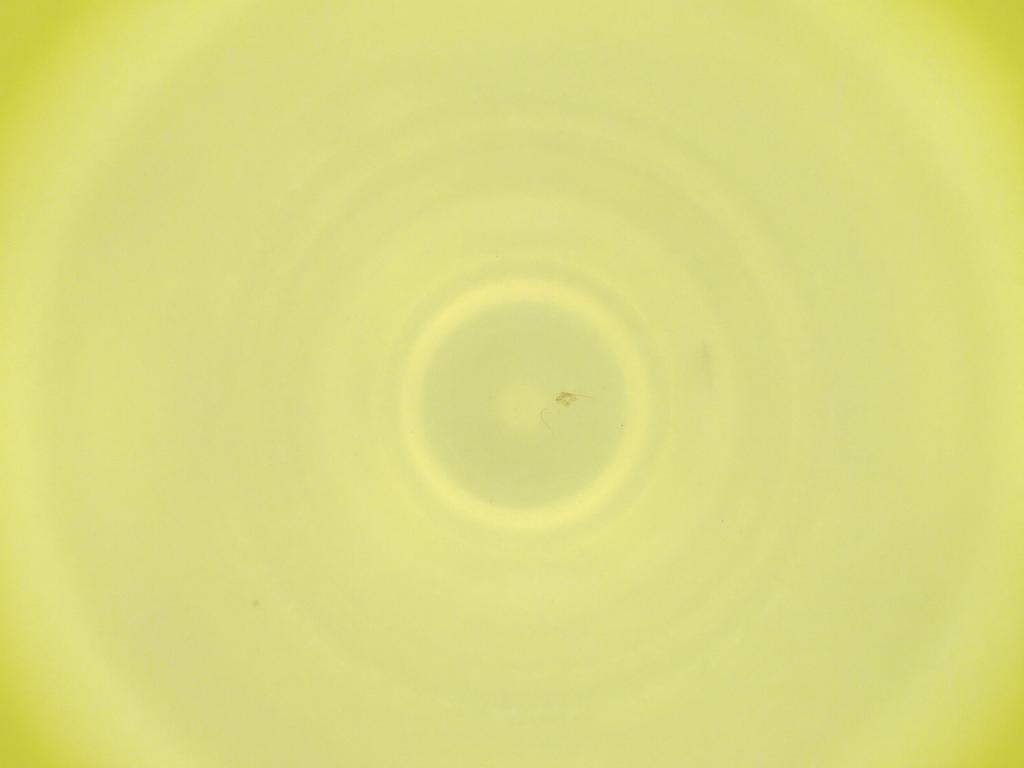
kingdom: Animalia
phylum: Arthropoda
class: Insecta
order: Diptera
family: Cecidomyiidae
